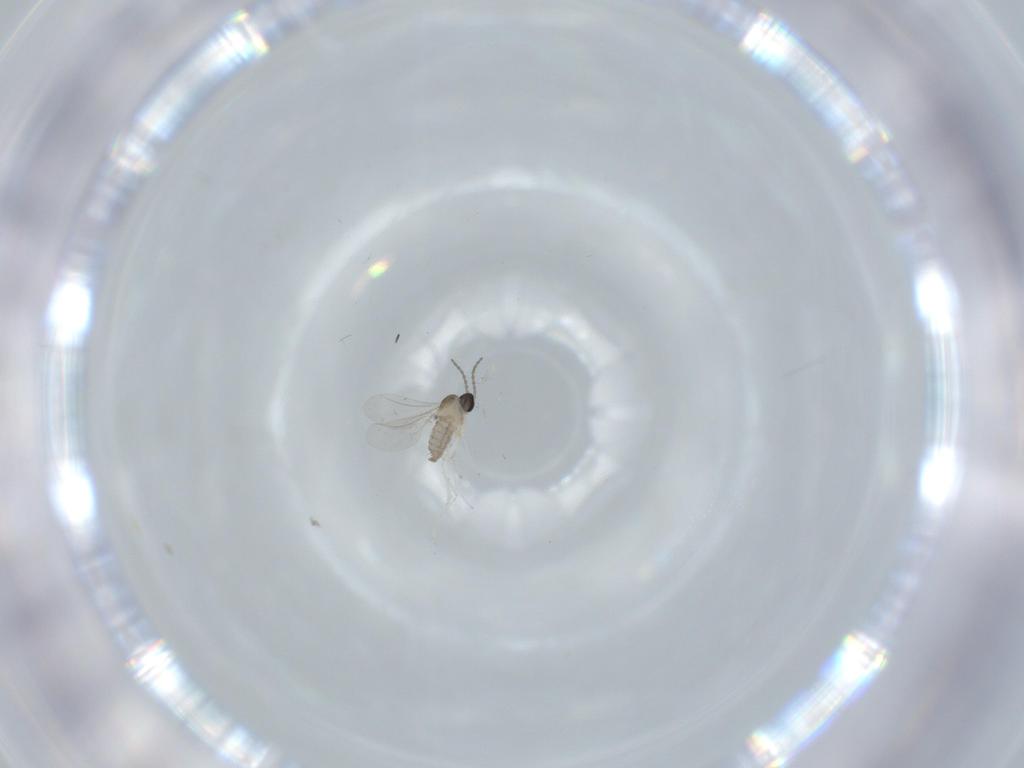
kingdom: Animalia
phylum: Arthropoda
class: Insecta
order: Diptera
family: Cecidomyiidae
